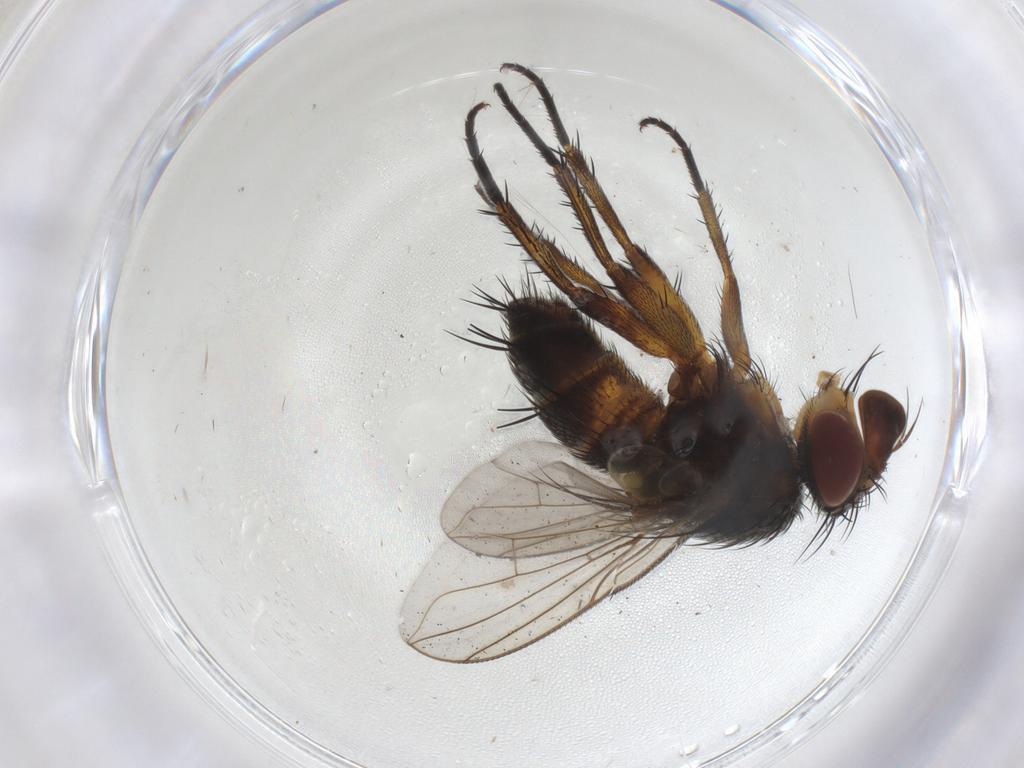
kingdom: Animalia
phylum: Arthropoda
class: Insecta
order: Diptera
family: Tachinidae
